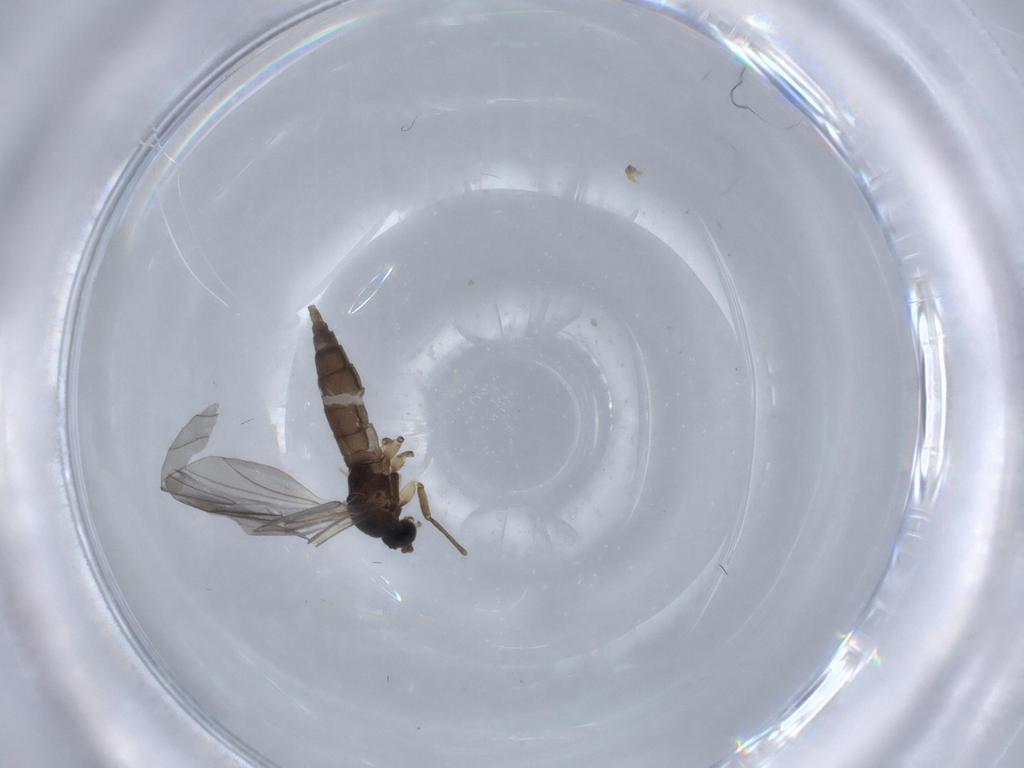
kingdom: Animalia
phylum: Arthropoda
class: Insecta
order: Diptera
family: Sciaridae
